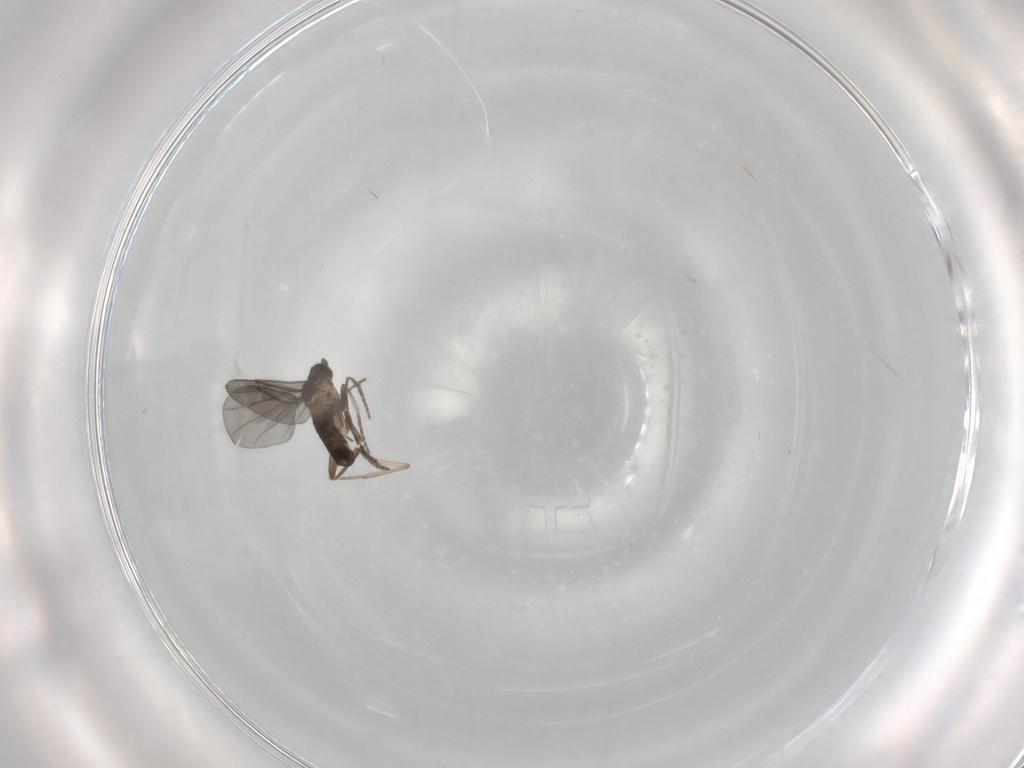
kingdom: Animalia
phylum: Arthropoda
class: Insecta
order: Diptera
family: Phoridae
